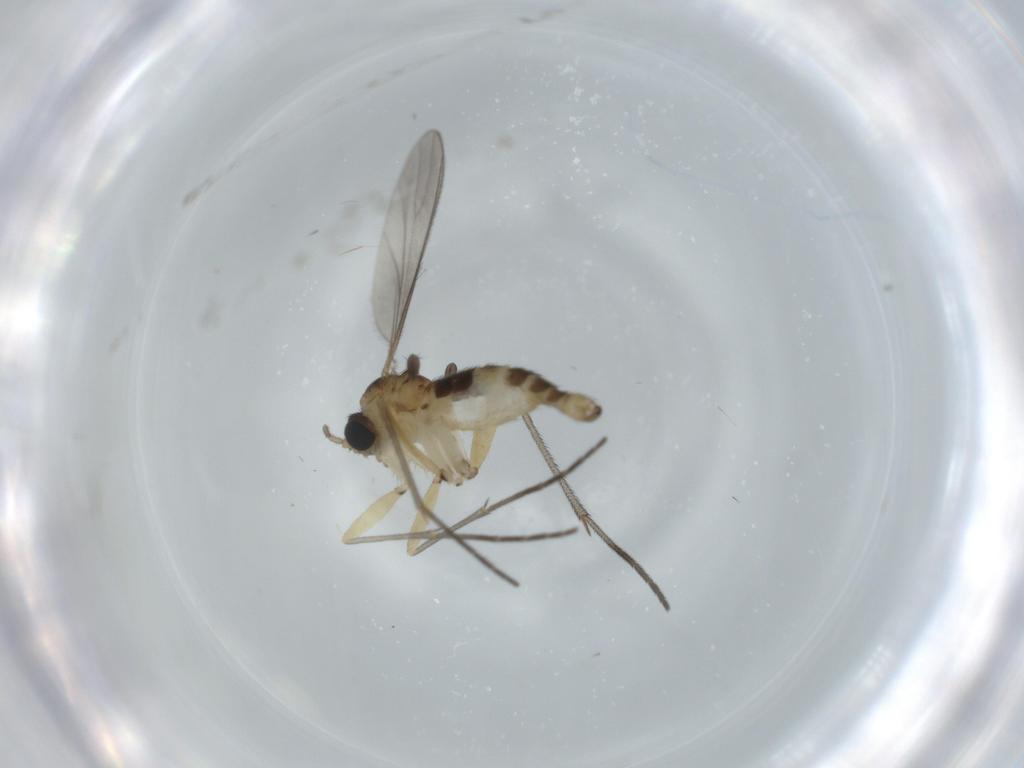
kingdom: Animalia
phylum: Arthropoda
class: Insecta
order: Diptera
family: Sciaridae
